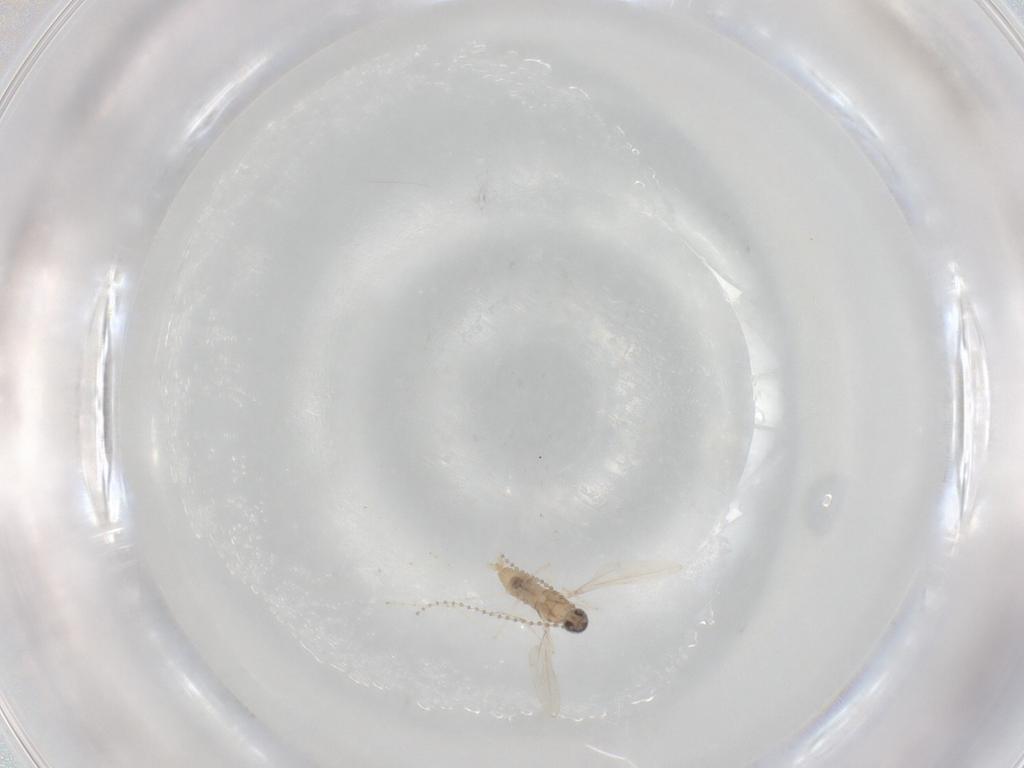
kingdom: Animalia
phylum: Arthropoda
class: Insecta
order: Diptera
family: Cecidomyiidae
